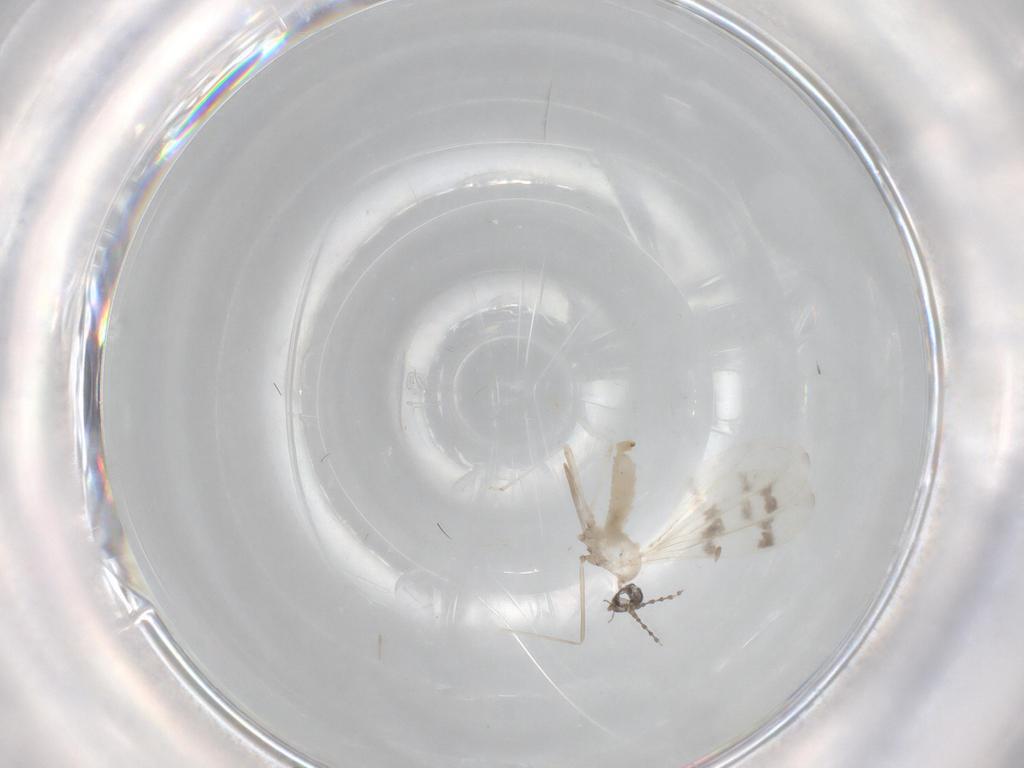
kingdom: Animalia
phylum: Arthropoda
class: Insecta
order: Diptera
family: Cecidomyiidae
